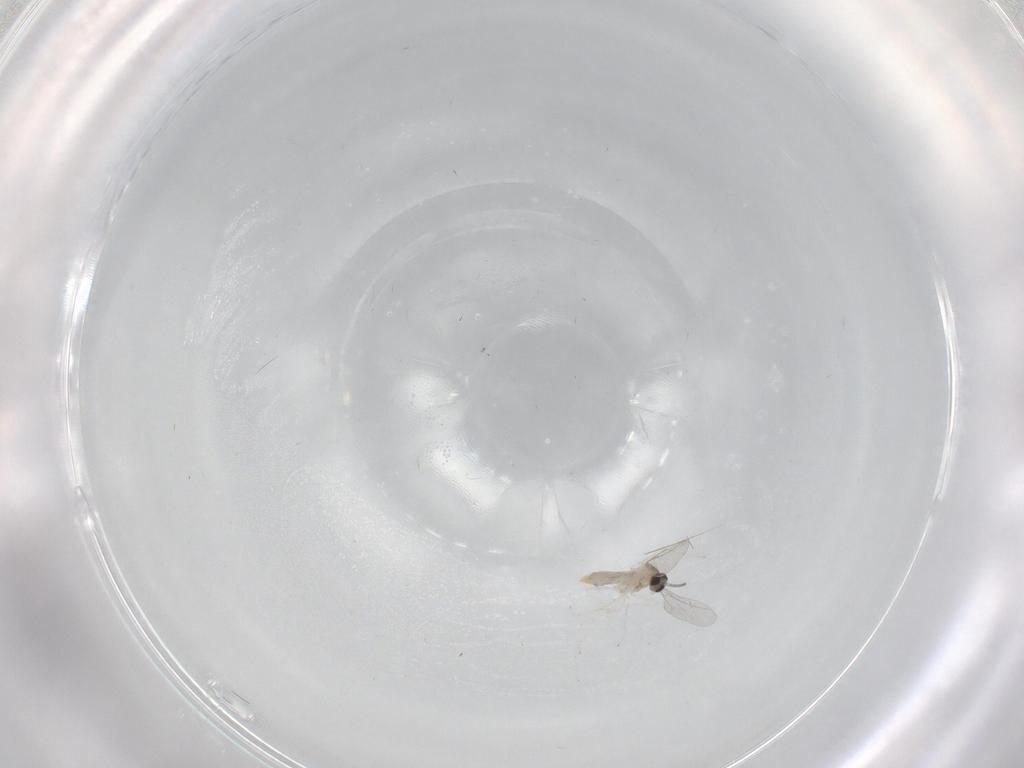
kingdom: Animalia
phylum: Arthropoda
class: Insecta
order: Diptera
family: Cecidomyiidae
